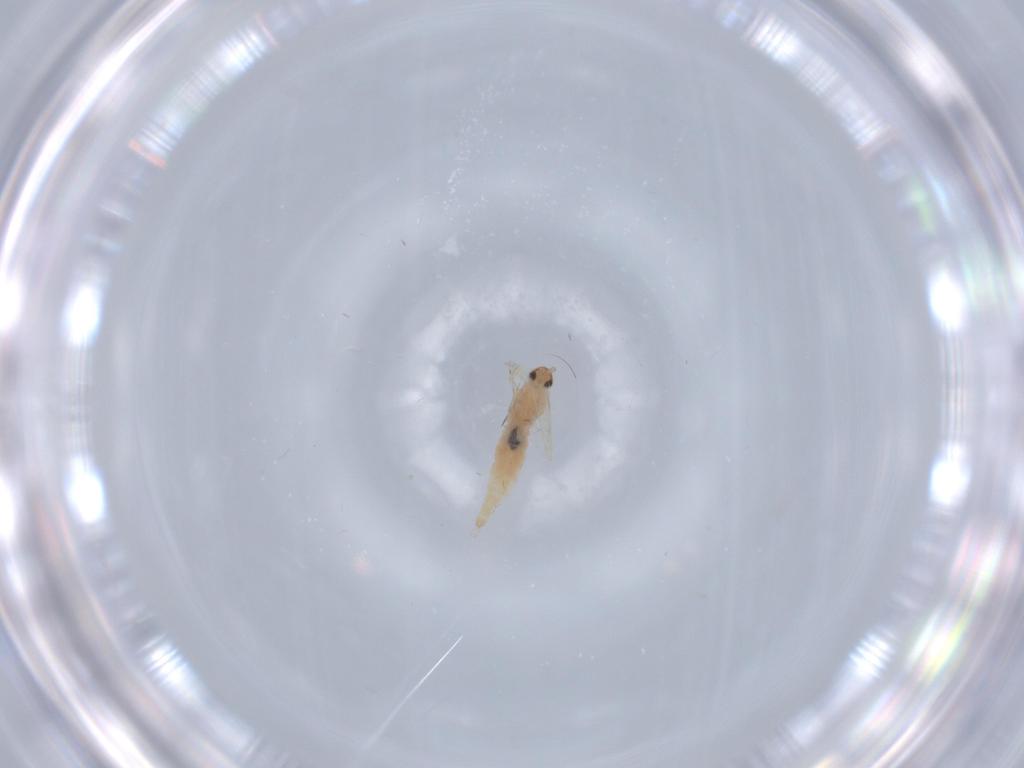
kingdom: Animalia
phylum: Arthropoda
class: Insecta
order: Diptera
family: Cecidomyiidae
